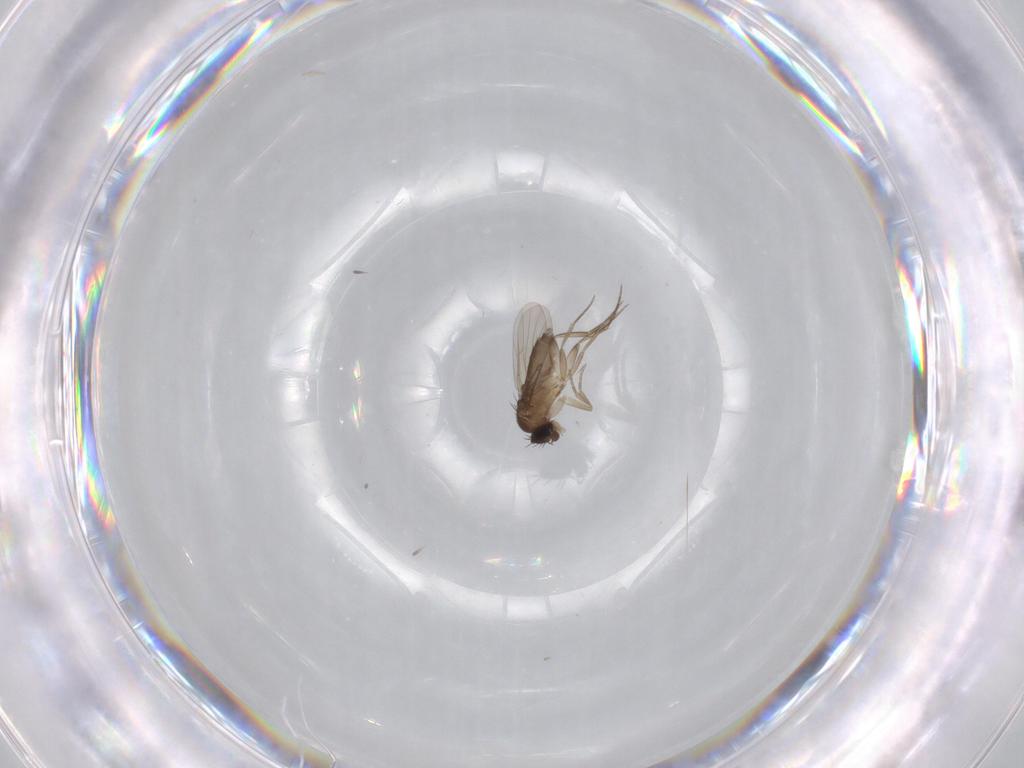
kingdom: Animalia
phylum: Arthropoda
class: Insecta
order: Diptera
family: Phoridae
